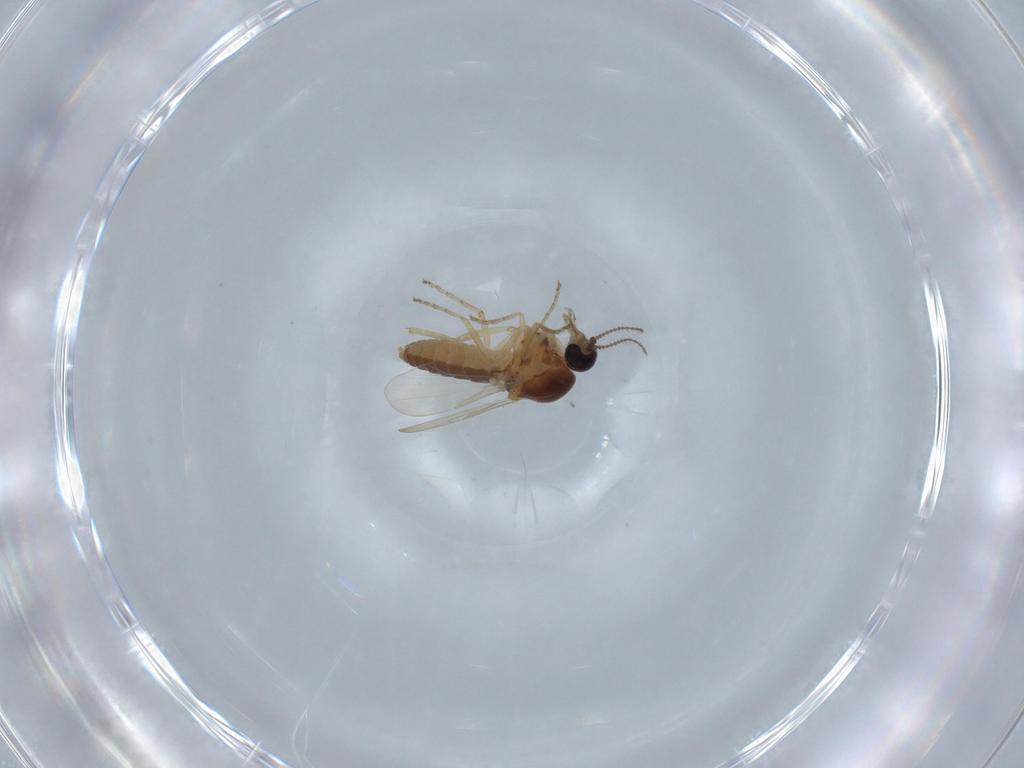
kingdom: Animalia
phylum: Arthropoda
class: Insecta
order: Diptera
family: Ceratopogonidae
